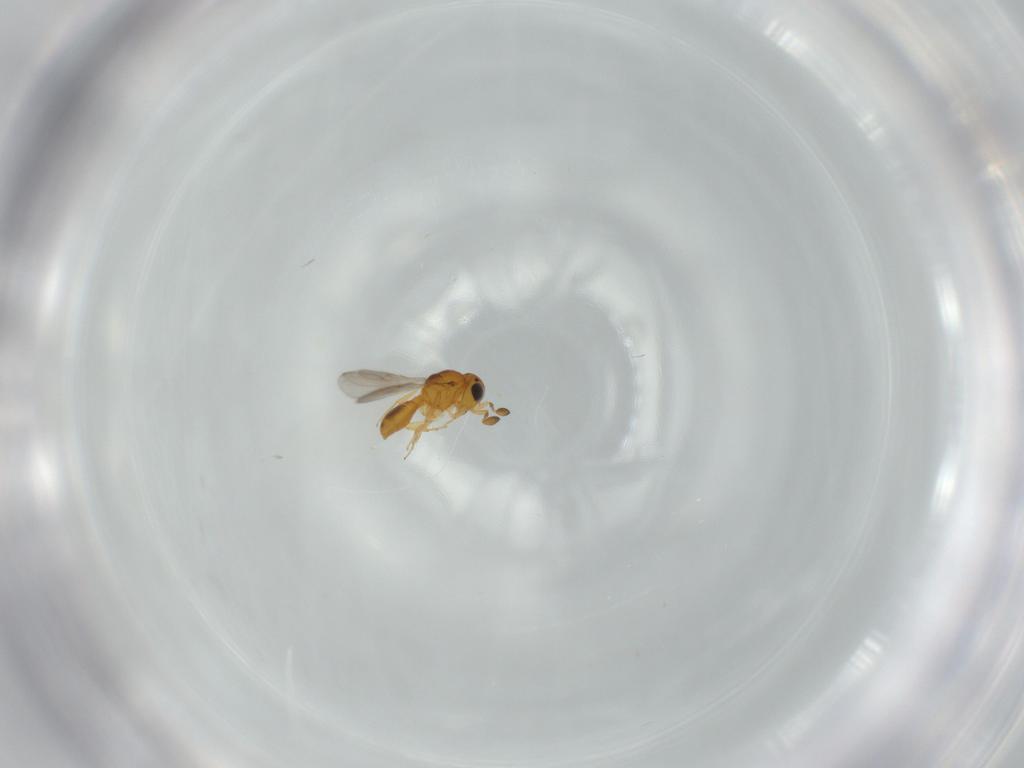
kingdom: Animalia
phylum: Arthropoda
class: Insecta
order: Hymenoptera
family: Scelionidae
